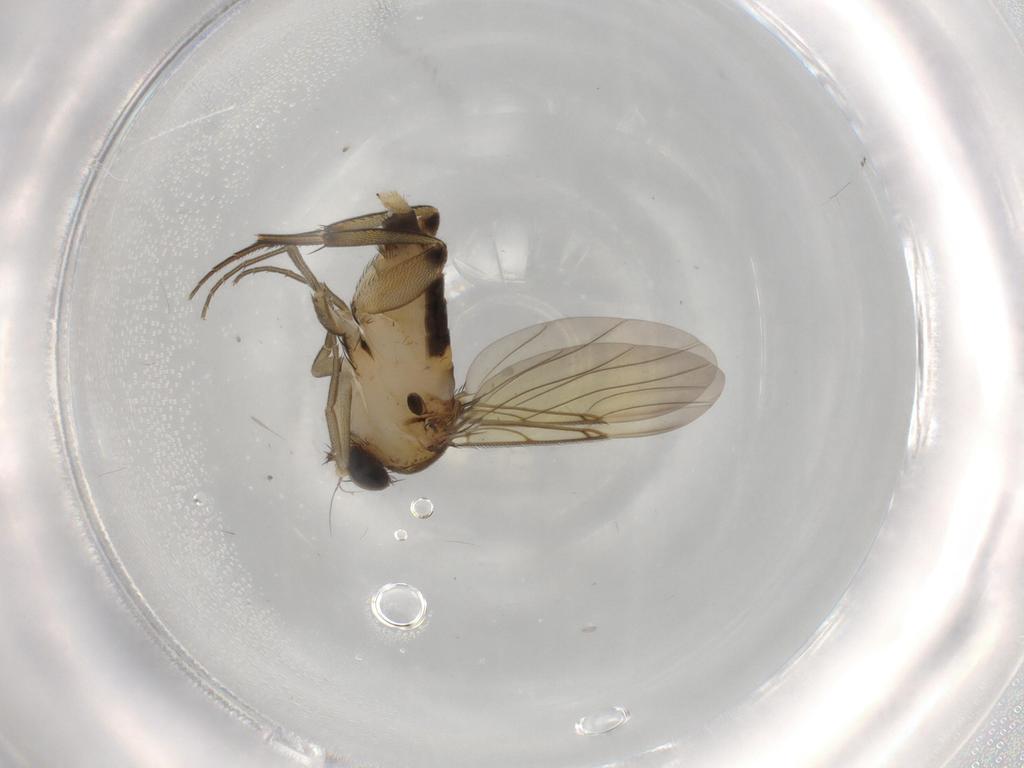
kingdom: Animalia
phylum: Arthropoda
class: Insecta
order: Diptera
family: Phoridae
